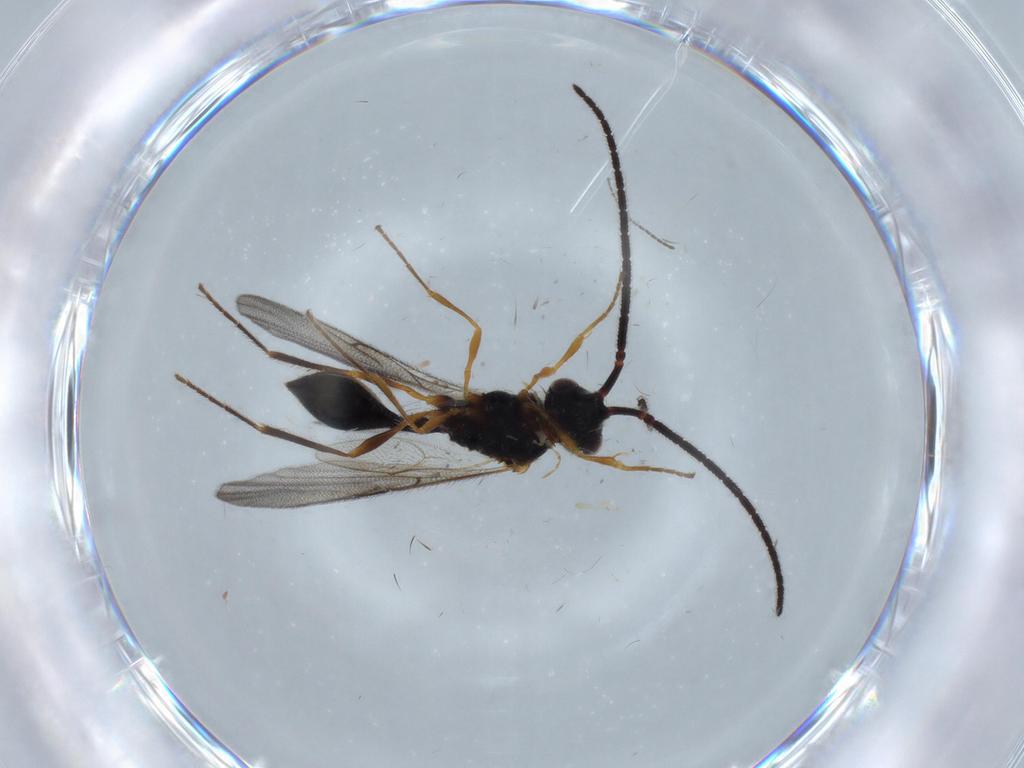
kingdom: Animalia
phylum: Arthropoda
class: Insecta
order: Hymenoptera
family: Diapriidae
